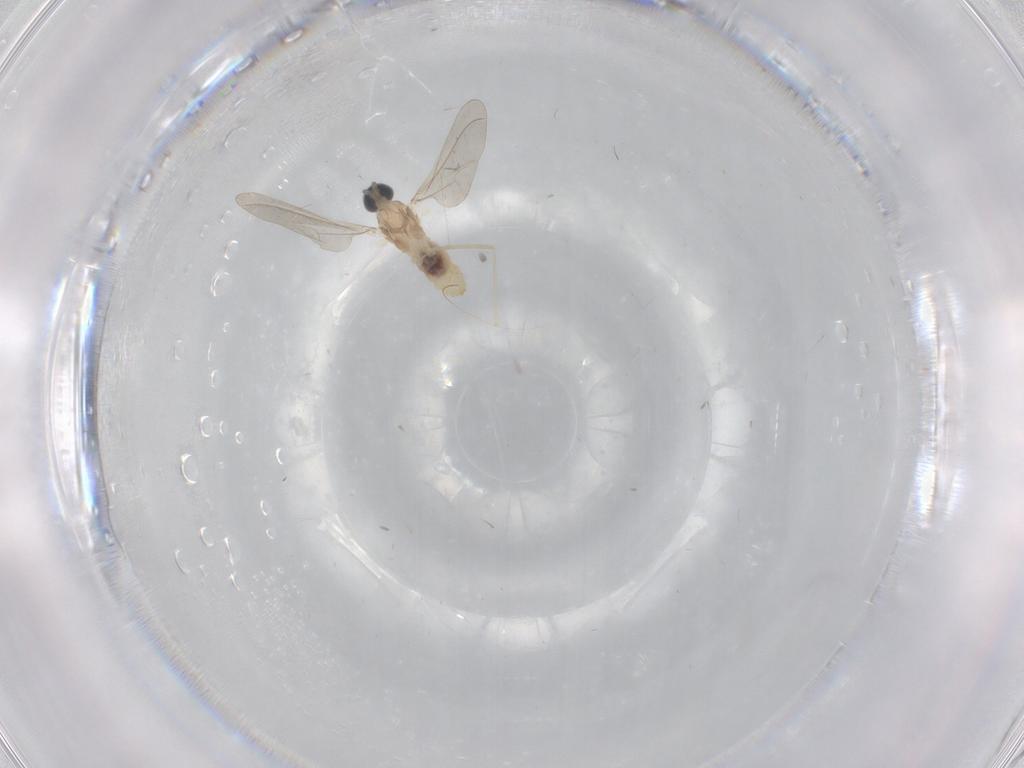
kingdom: Animalia
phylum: Arthropoda
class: Insecta
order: Diptera
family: Cecidomyiidae
